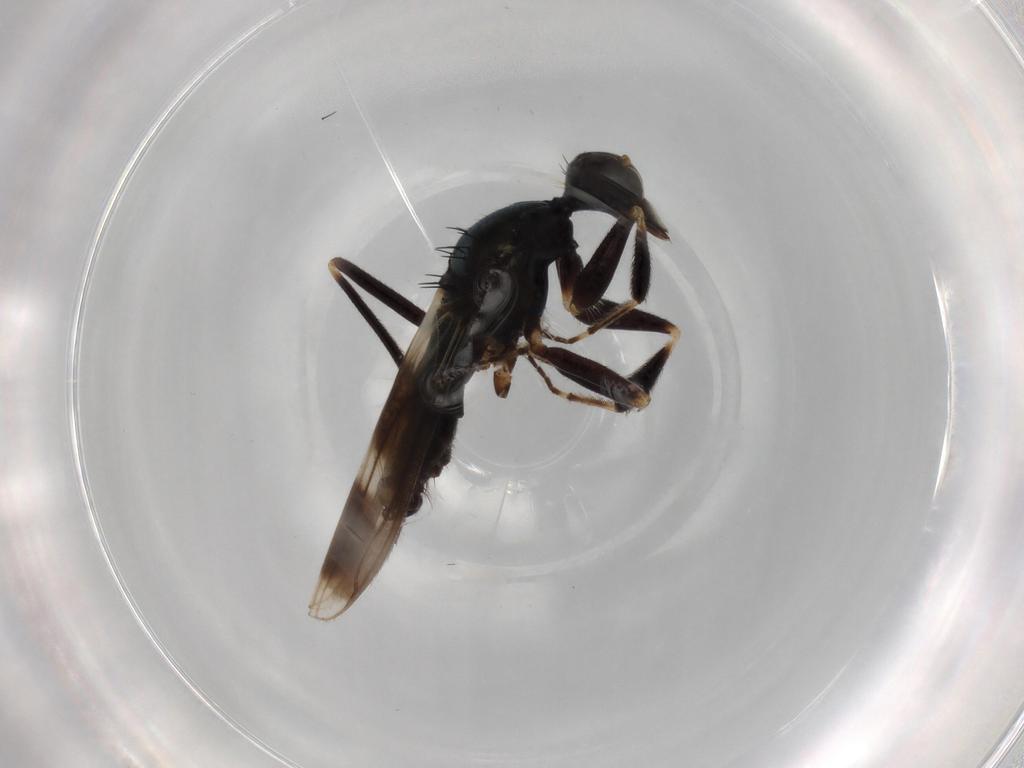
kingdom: Animalia
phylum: Arthropoda
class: Insecta
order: Diptera
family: Hybotidae
